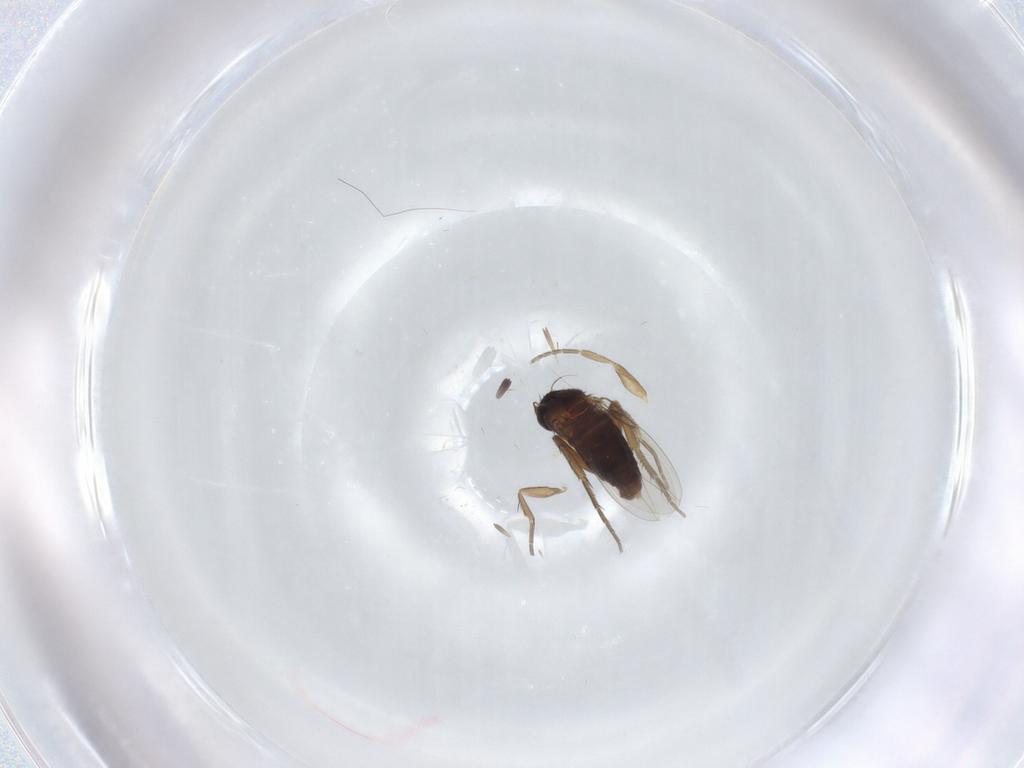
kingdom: Animalia
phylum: Arthropoda
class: Insecta
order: Diptera
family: Phoridae
